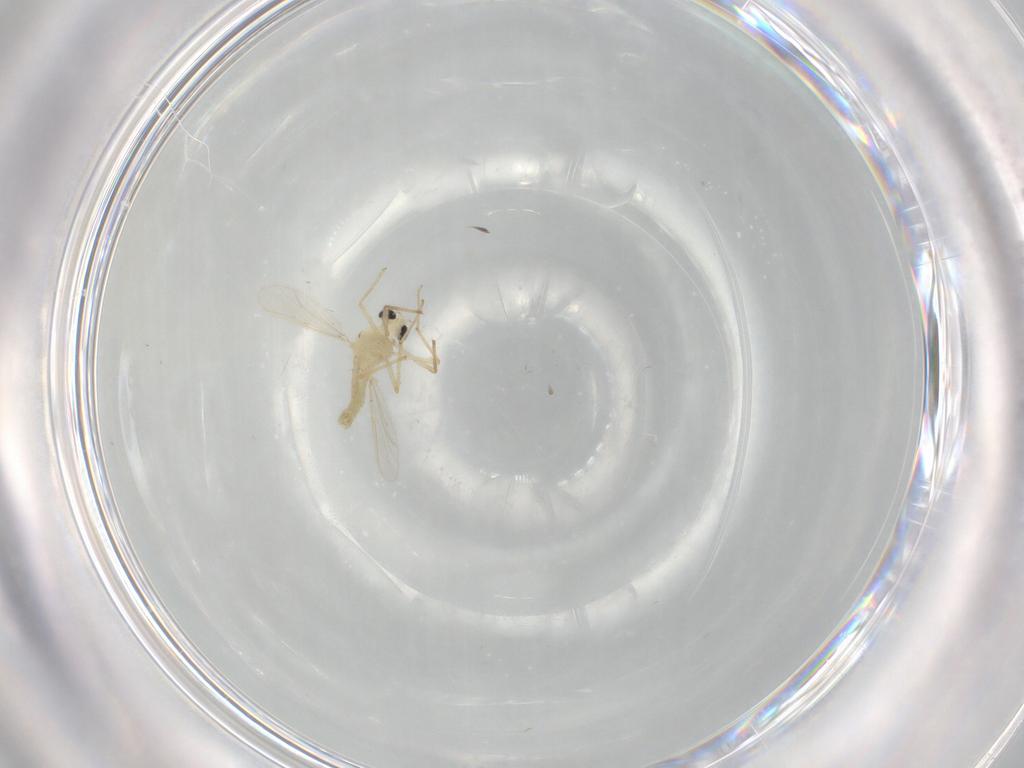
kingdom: Animalia
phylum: Arthropoda
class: Insecta
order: Diptera
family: Chironomidae
